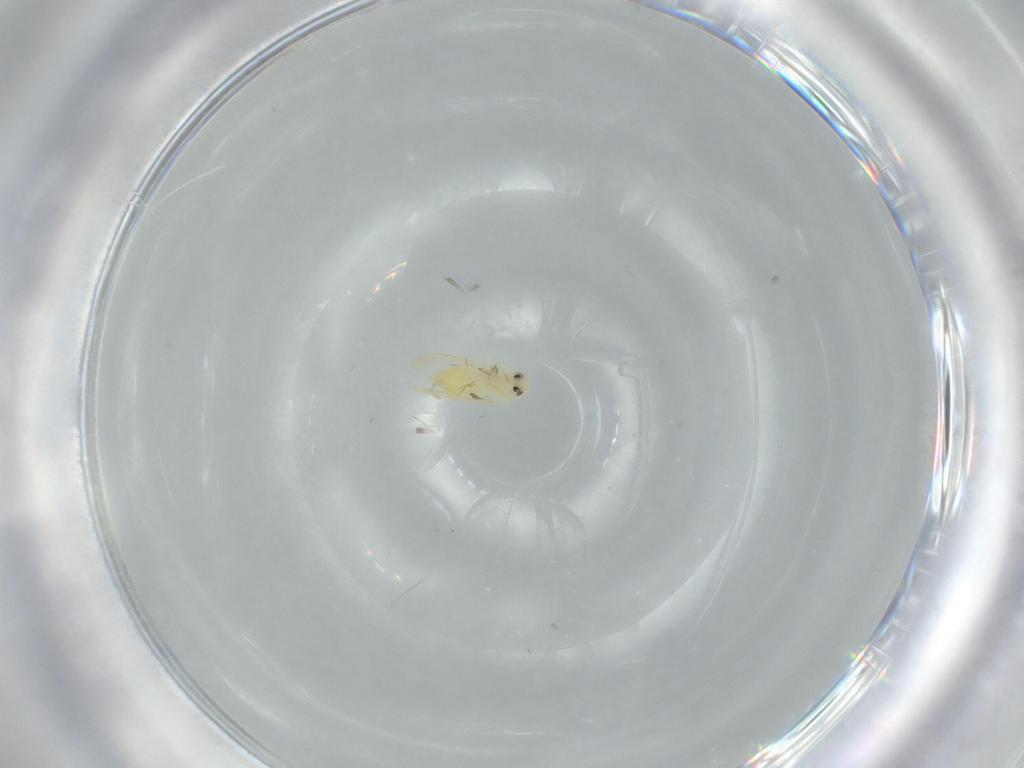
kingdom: Animalia
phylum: Arthropoda
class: Insecta
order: Hemiptera
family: Aleyrodidae
